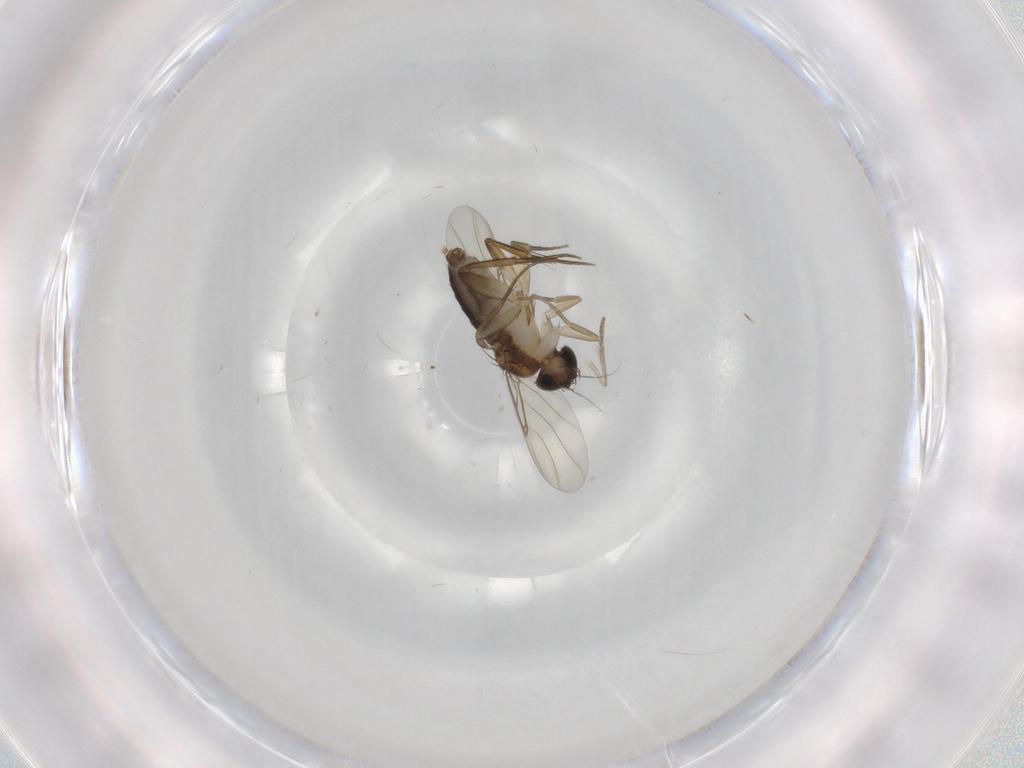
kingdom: Animalia
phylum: Arthropoda
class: Insecta
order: Diptera
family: Phoridae
